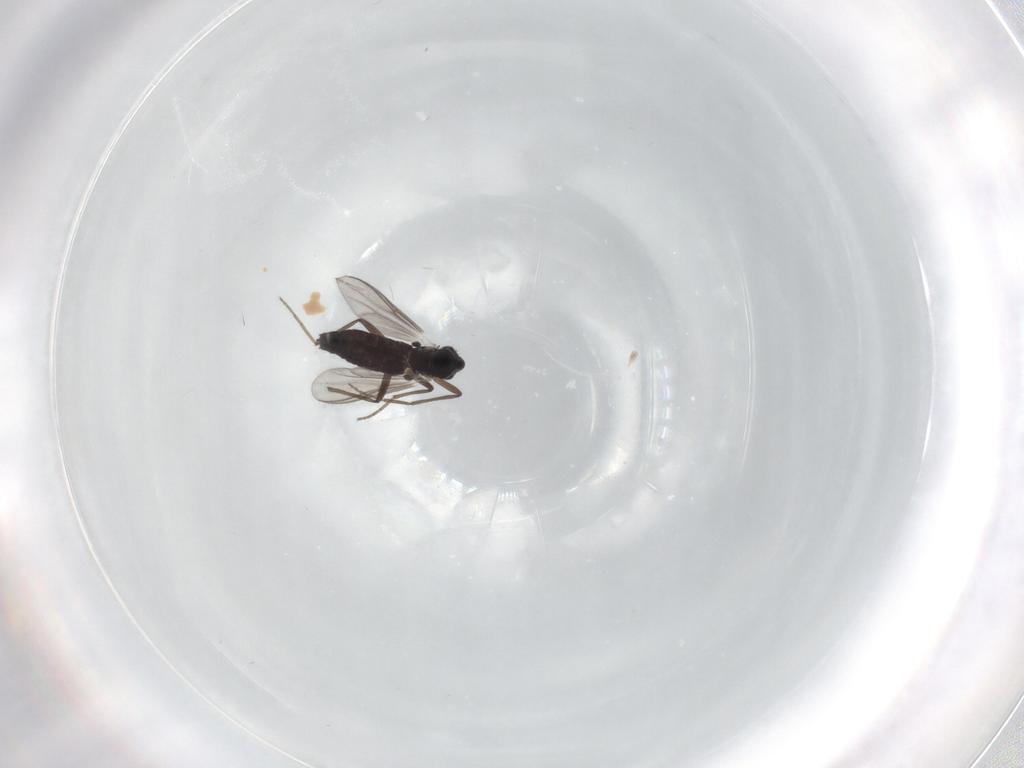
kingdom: Animalia
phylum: Arthropoda
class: Insecta
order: Diptera
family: Chironomidae
